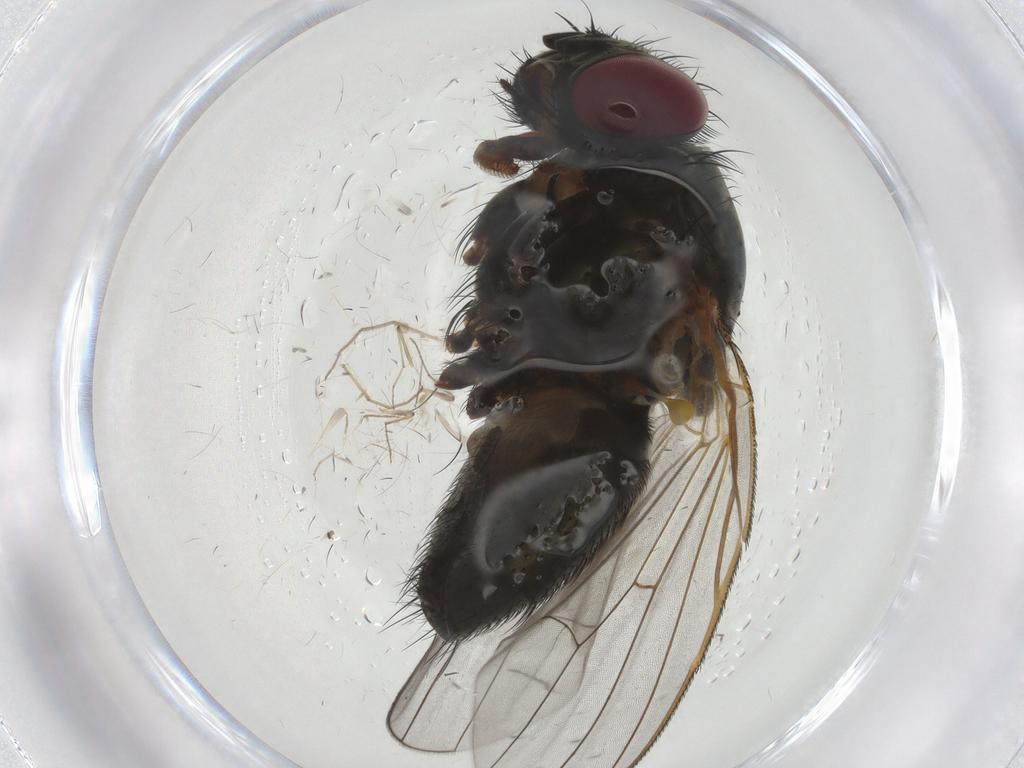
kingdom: Animalia
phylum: Arthropoda
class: Insecta
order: Diptera
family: Fannia
